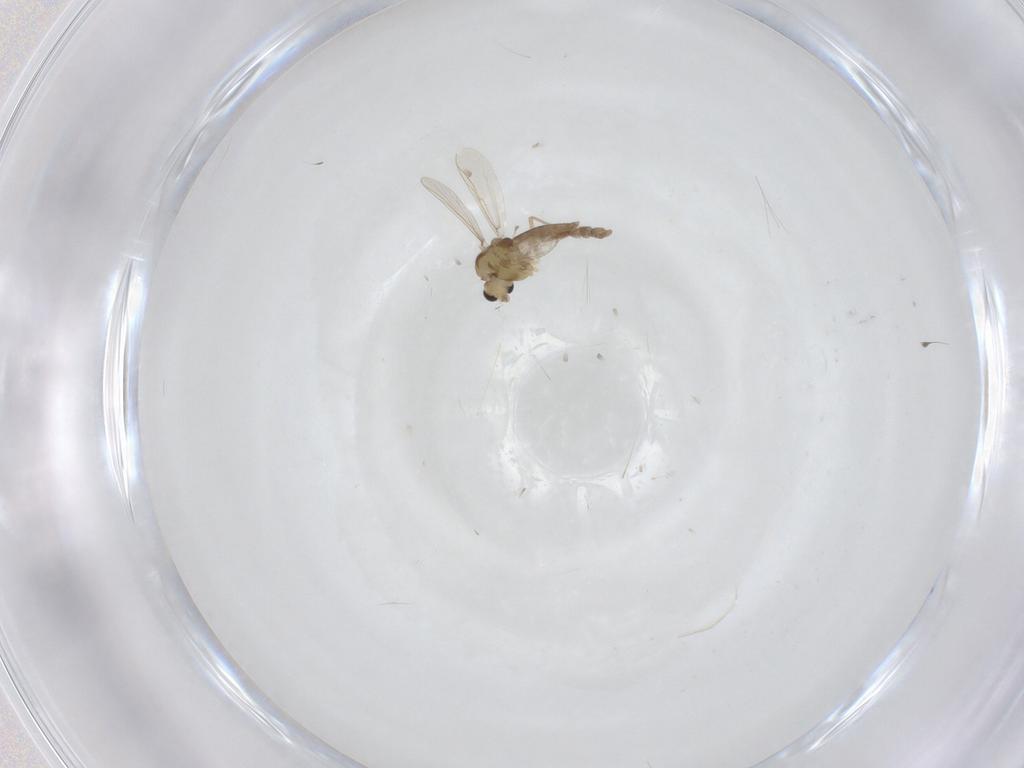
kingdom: Animalia
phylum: Arthropoda
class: Insecta
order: Diptera
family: Chironomidae
